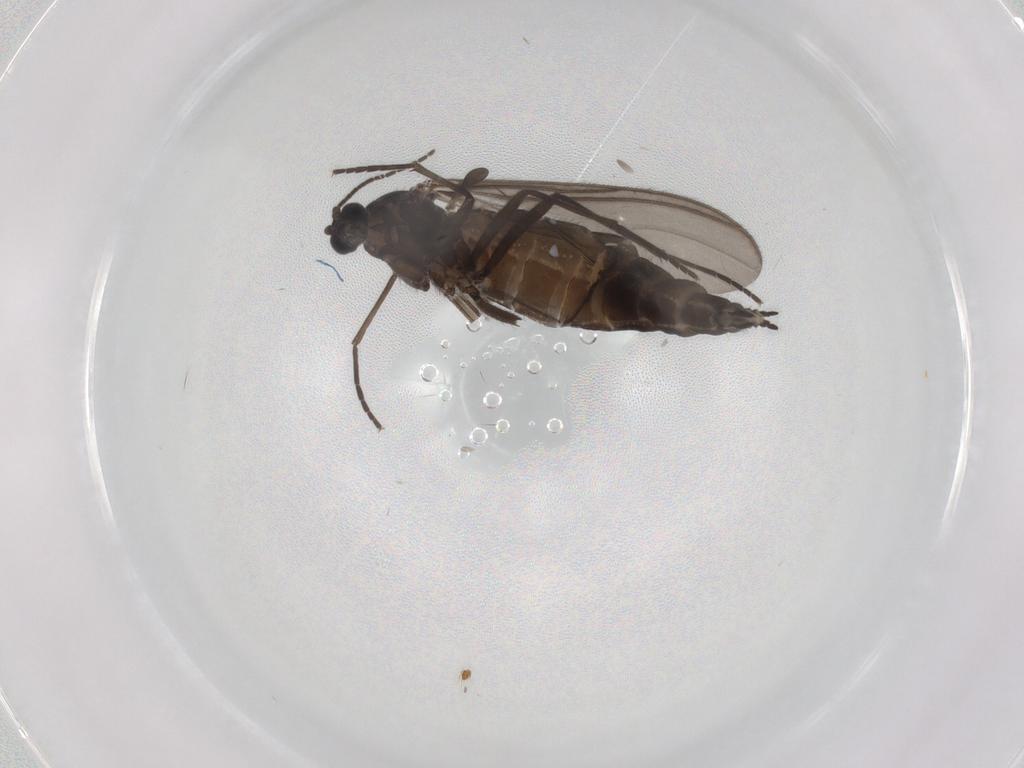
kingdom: Animalia
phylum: Arthropoda
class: Insecta
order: Diptera
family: Sciaridae
